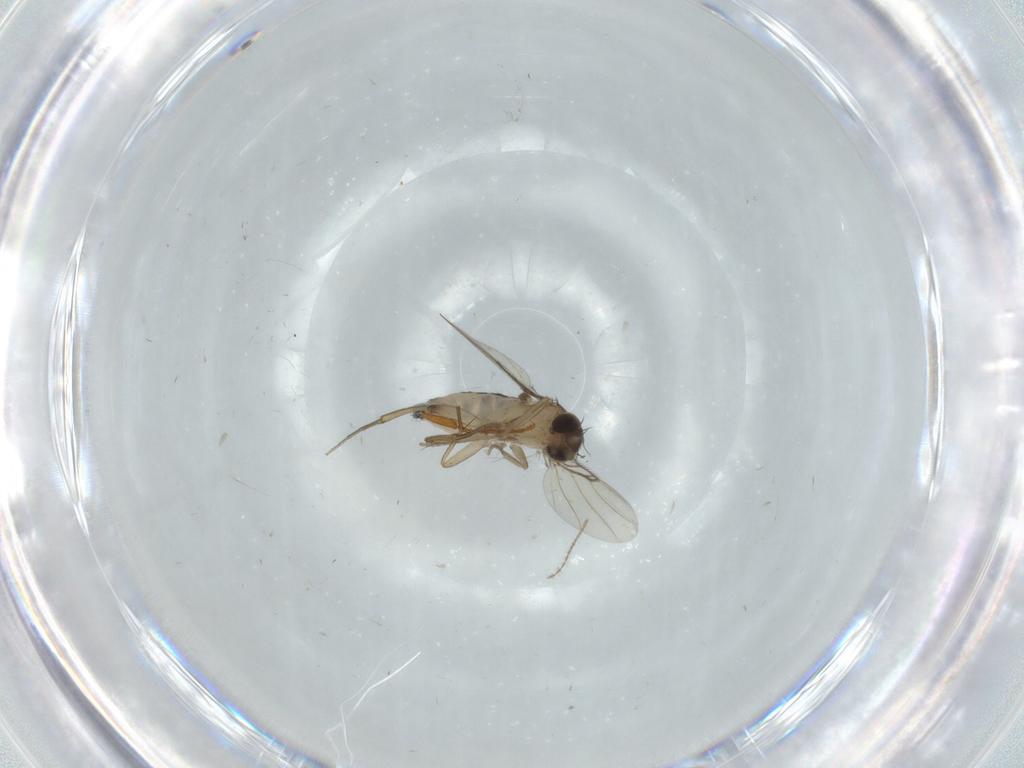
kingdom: Animalia
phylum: Arthropoda
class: Insecta
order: Diptera
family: Phoridae
